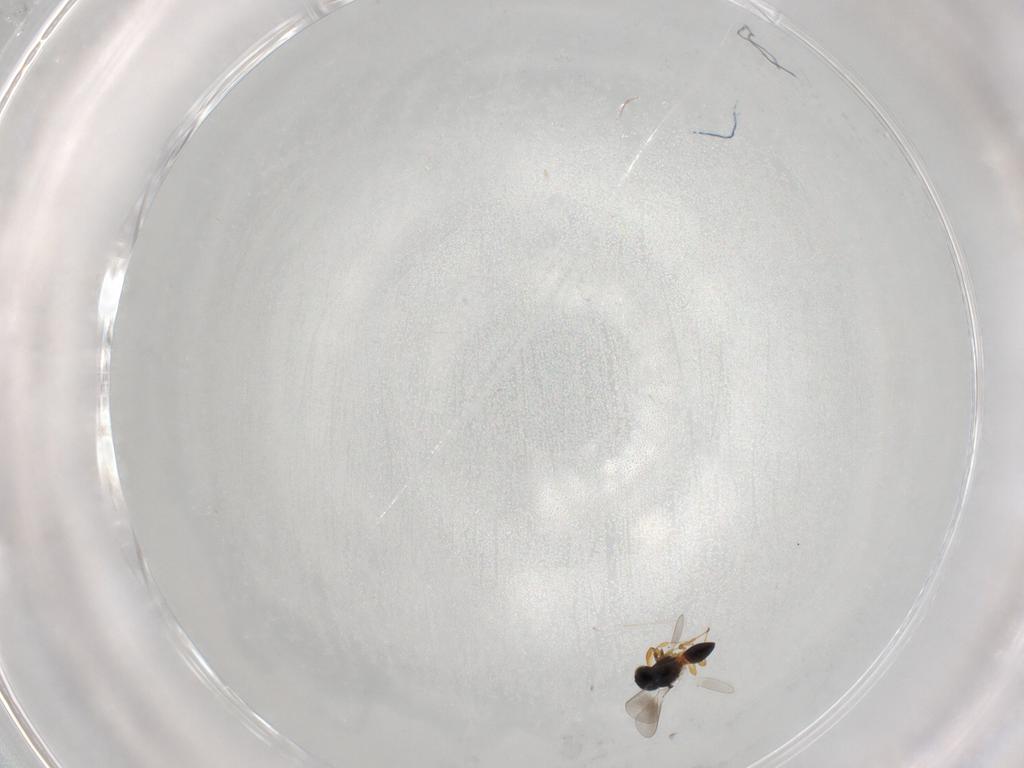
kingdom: Animalia
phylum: Arthropoda
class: Insecta
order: Hymenoptera
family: Platygastridae
